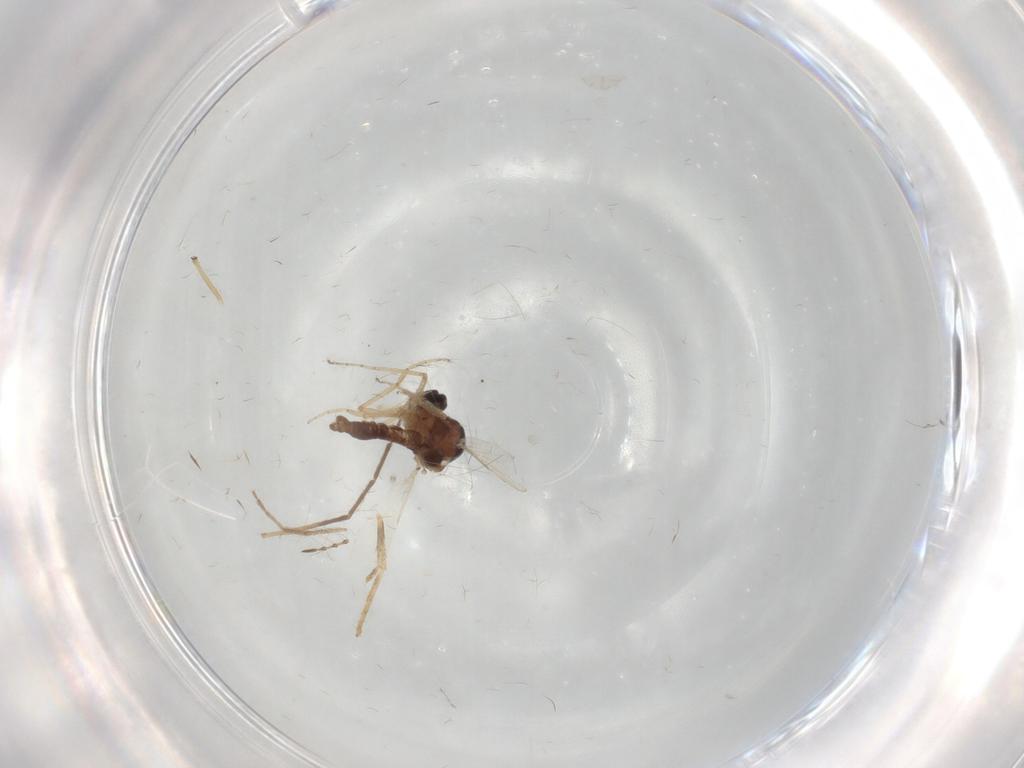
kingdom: Animalia
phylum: Arthropoda
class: Insecta
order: Diptera
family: Ceratopogonidae
